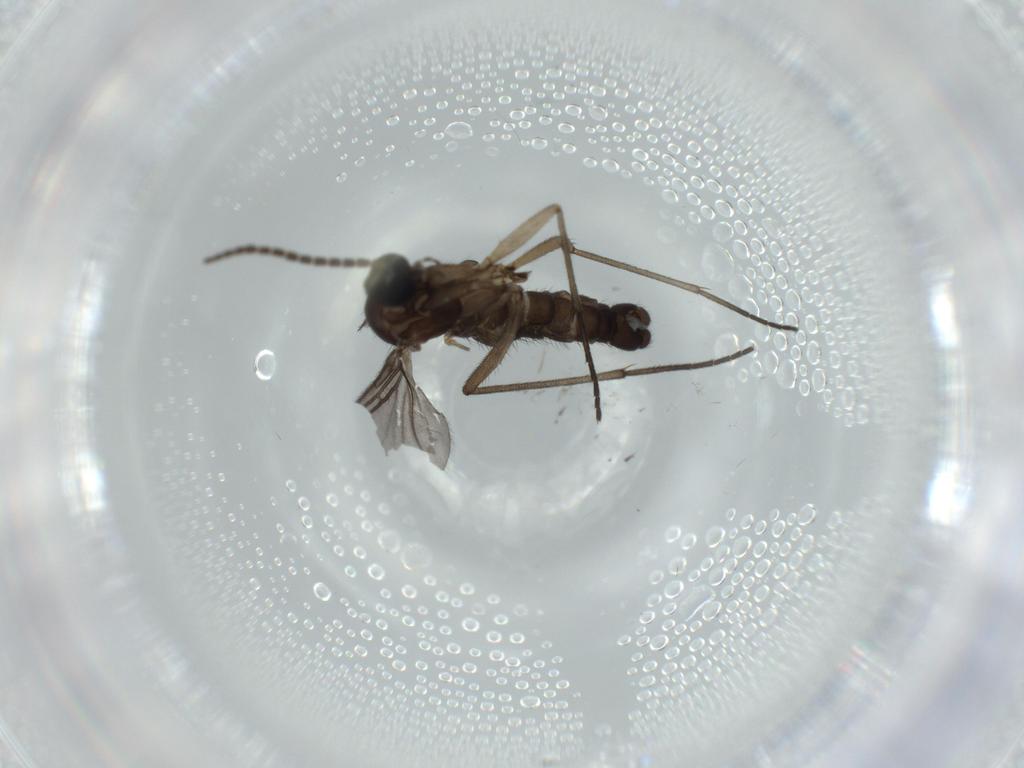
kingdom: Animalia
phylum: Arthropoda
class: Insecta
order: Diptera
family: Sciaridae
